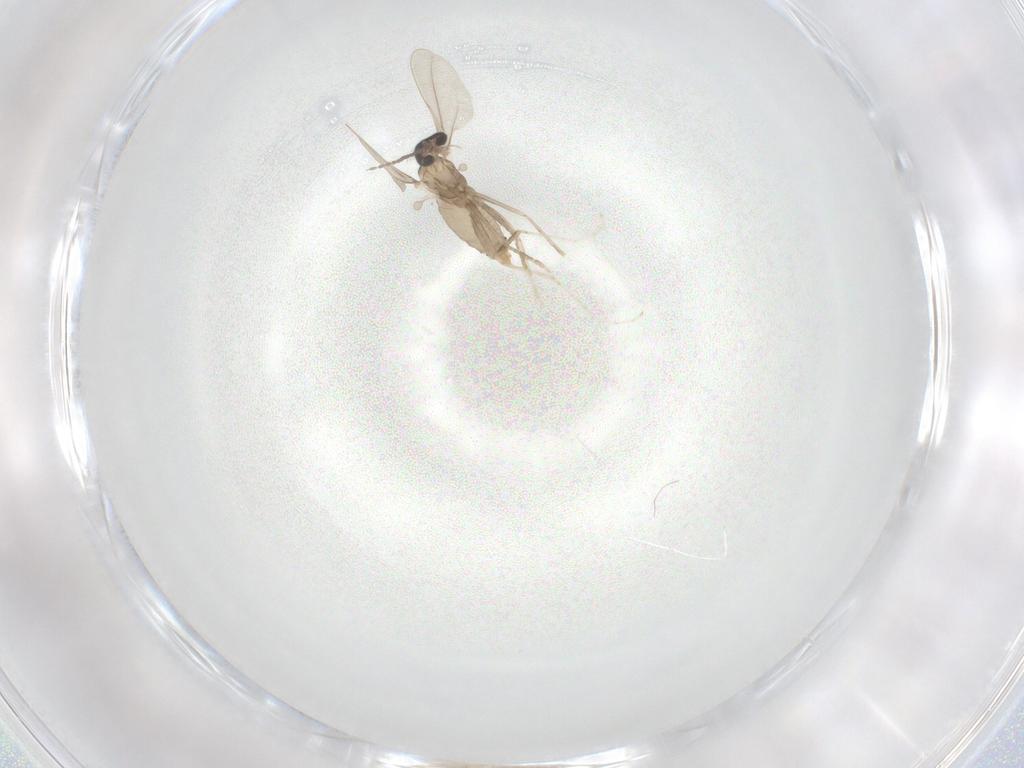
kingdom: Animalia
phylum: Arthropoda
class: Insecta
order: Diptera
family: Cecidomyiidae
